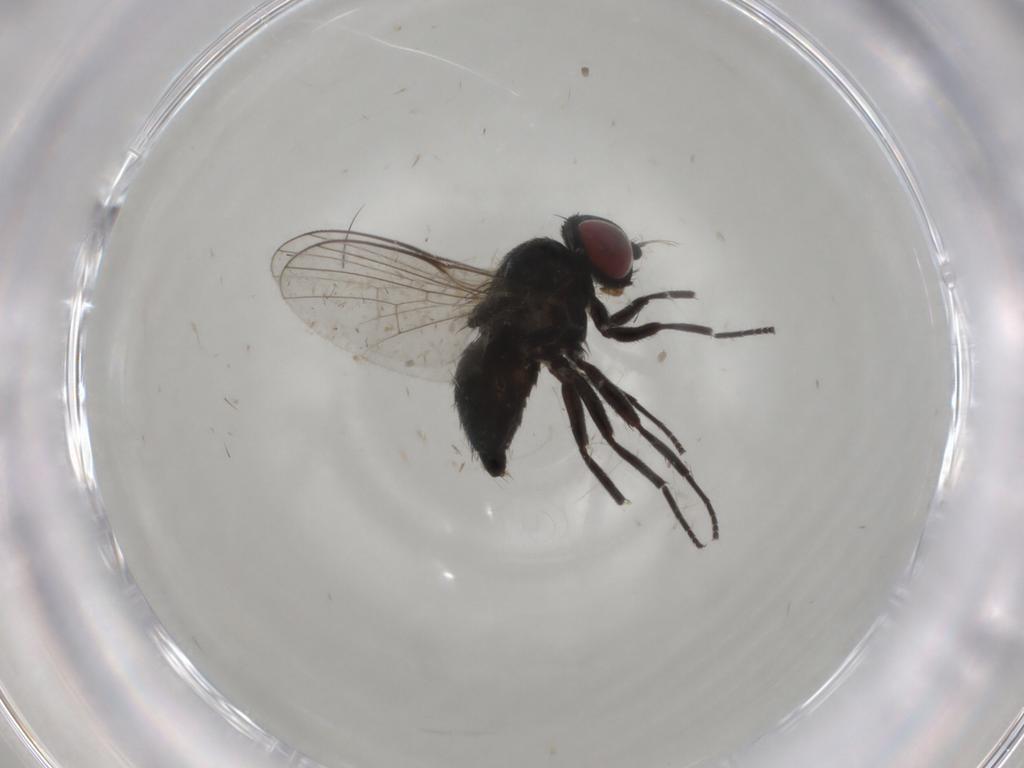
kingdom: Animalia
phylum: Arthropoda
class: Insecta
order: Diptera
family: Agromyzidae
